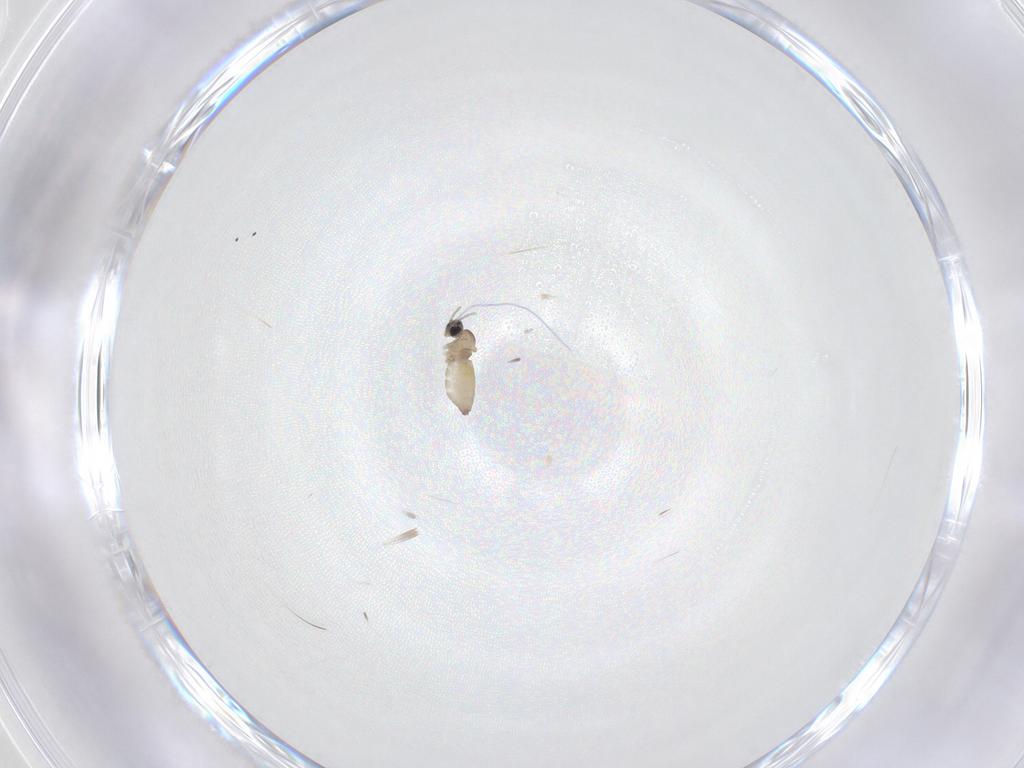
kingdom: Animalia
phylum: Arthropoda
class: Insecta
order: Diptera
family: Cecidomyiidae
